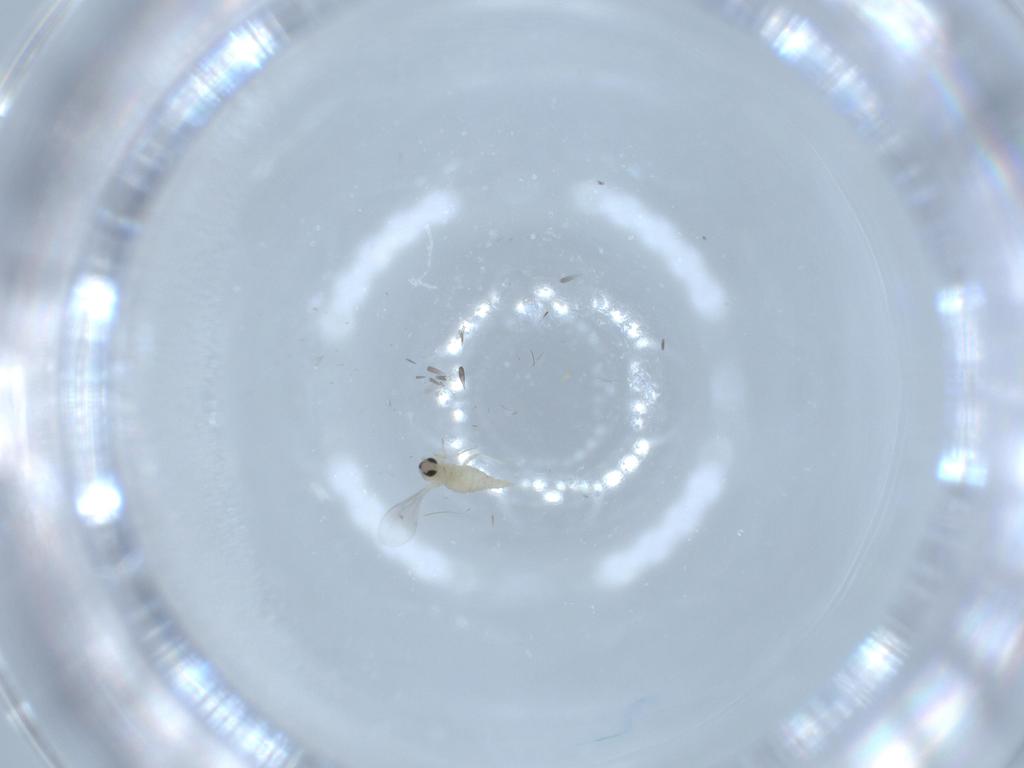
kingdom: Animalia
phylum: Arthropoda
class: Insecta
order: Diptera
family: Cecidomyiidae
